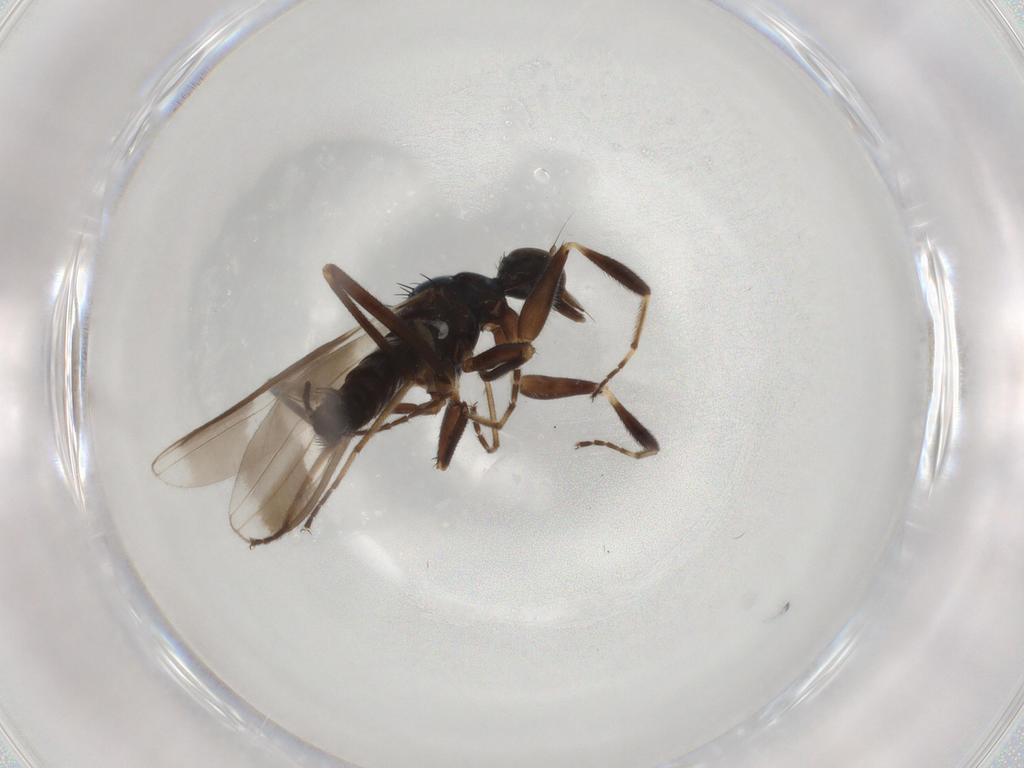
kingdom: Animalia
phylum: Arthropoda
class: Insecta
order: Diptera
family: Hybotidae
